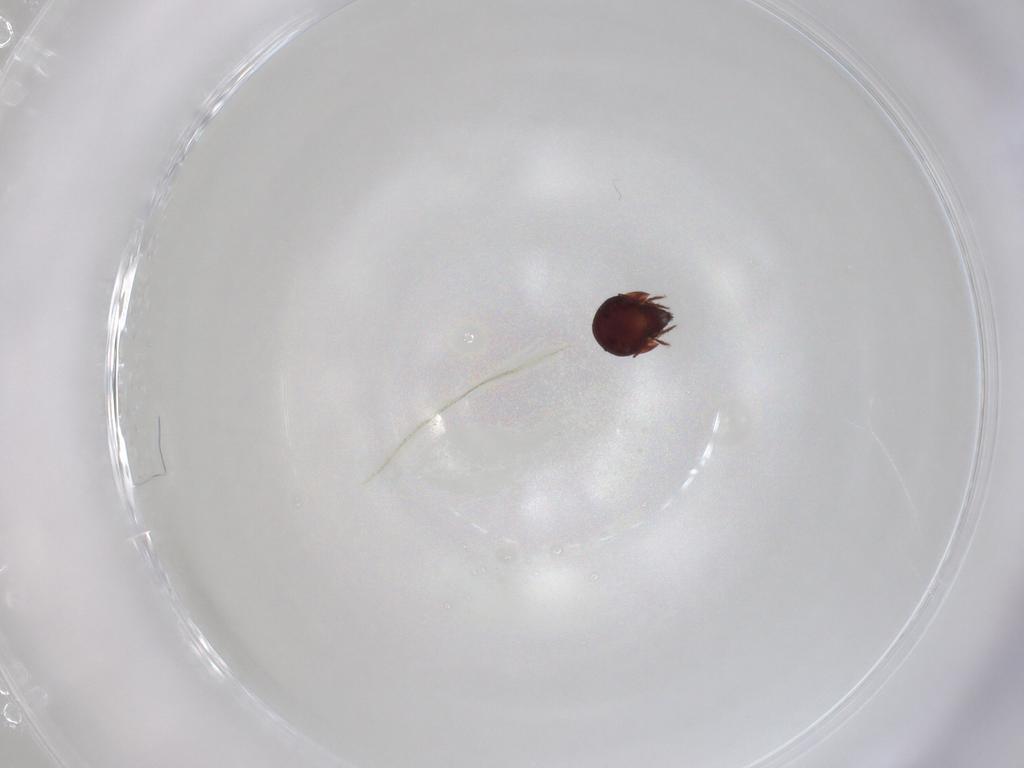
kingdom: Animalia
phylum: Arthropoda
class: Arachnida
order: Sarcoptiformes
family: Humerobatidae
